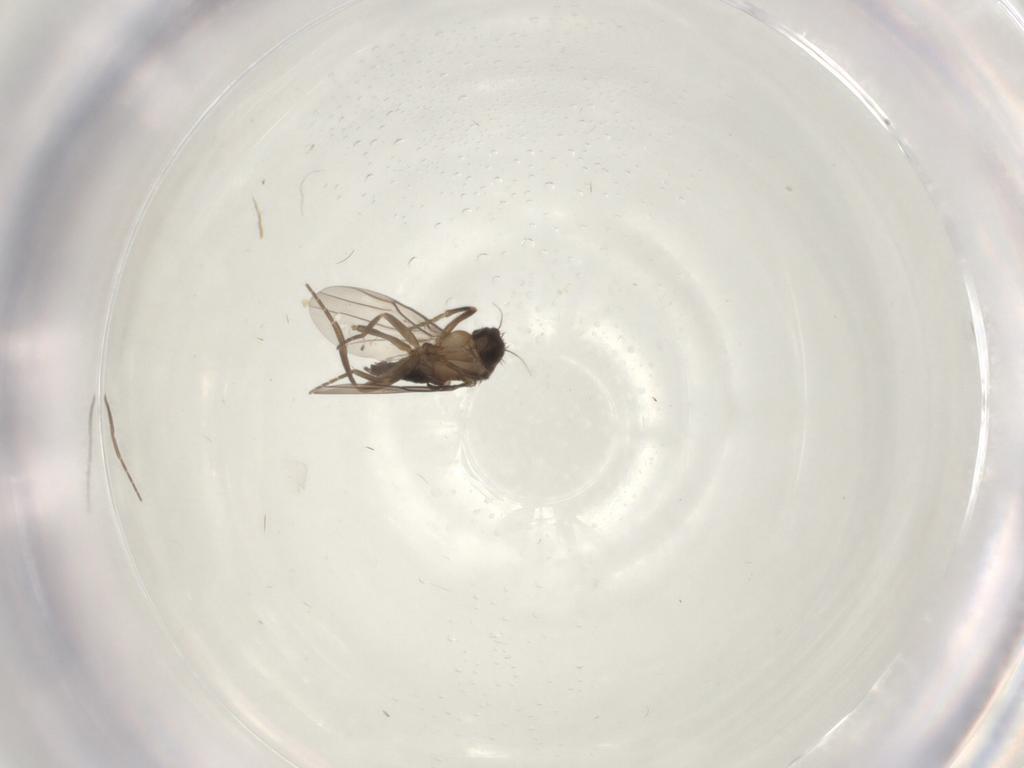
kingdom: Animalia
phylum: Arthropoda
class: Insecta
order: Diptera
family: Phoridae
